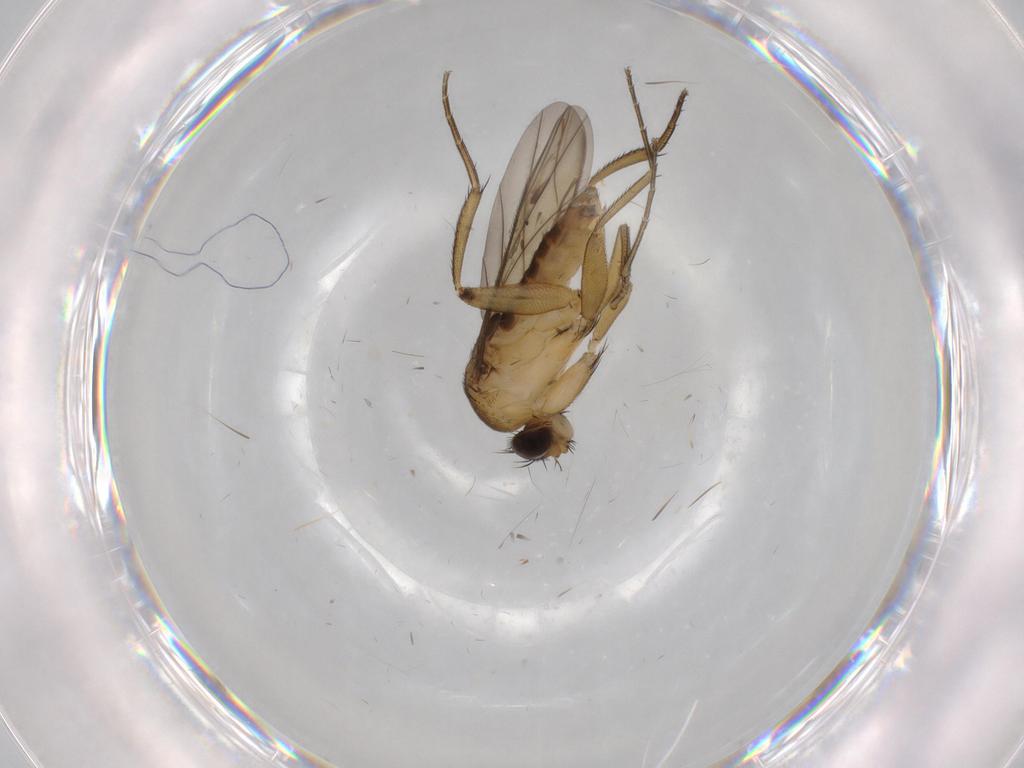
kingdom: Animalia
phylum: Arthropoda
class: Insecta
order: Diptera
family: Phoridae
